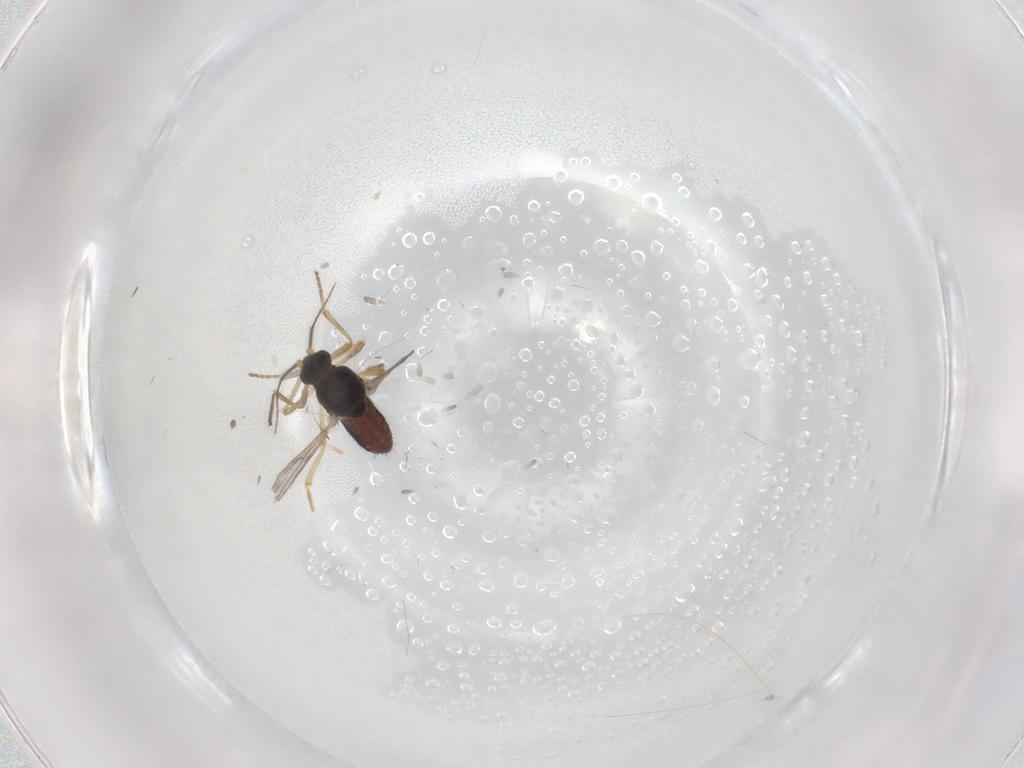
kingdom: Animalia
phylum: Arthropoda
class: Insecta
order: Diptera
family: Ceratopogonidae
